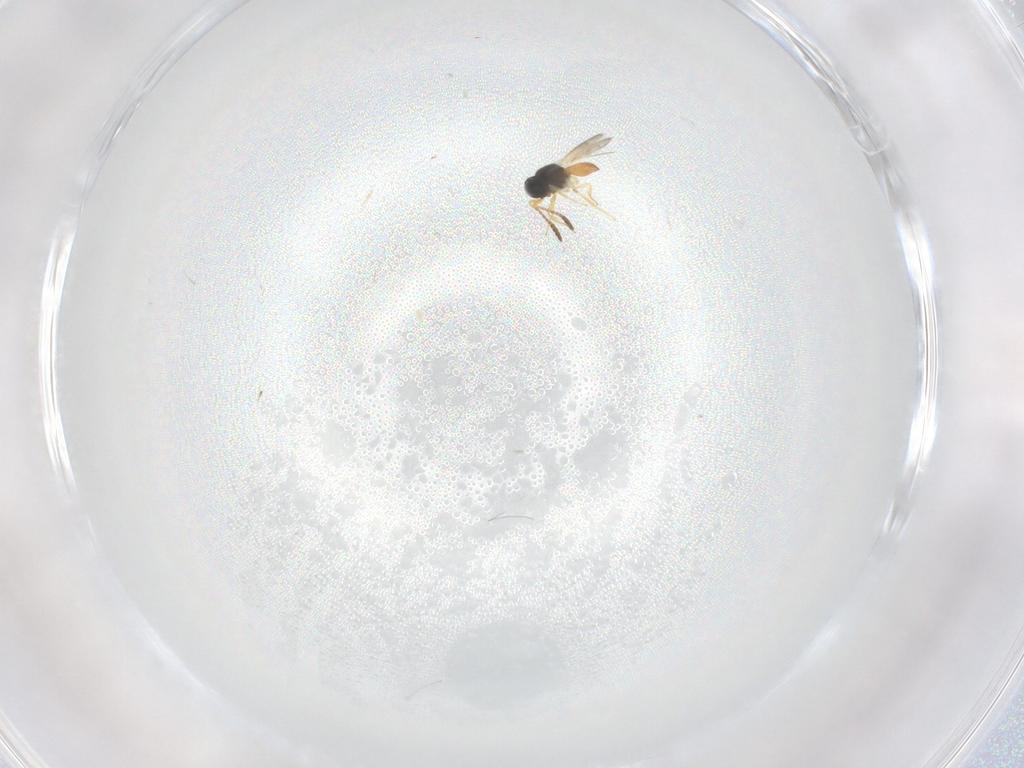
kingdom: Animalia
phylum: Arthropoda
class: Insecta
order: Hymenoptera
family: Scelionidae
